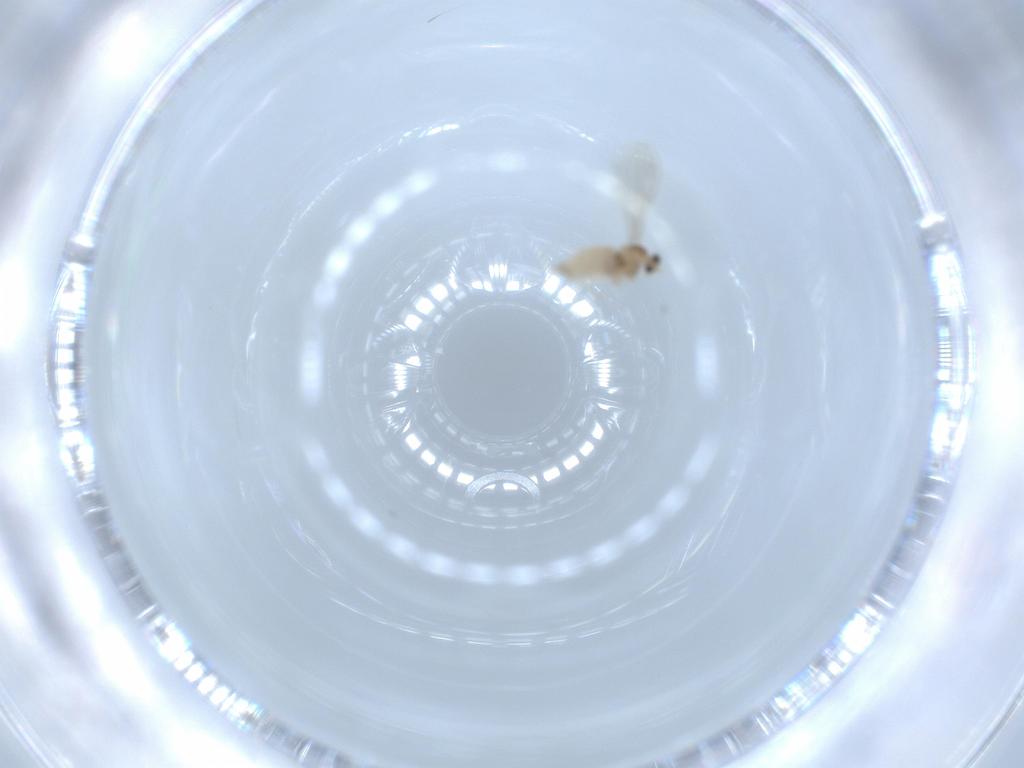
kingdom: Animalia
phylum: Arthropoda
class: Insecta
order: Diptera
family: Cecidomyiidae
